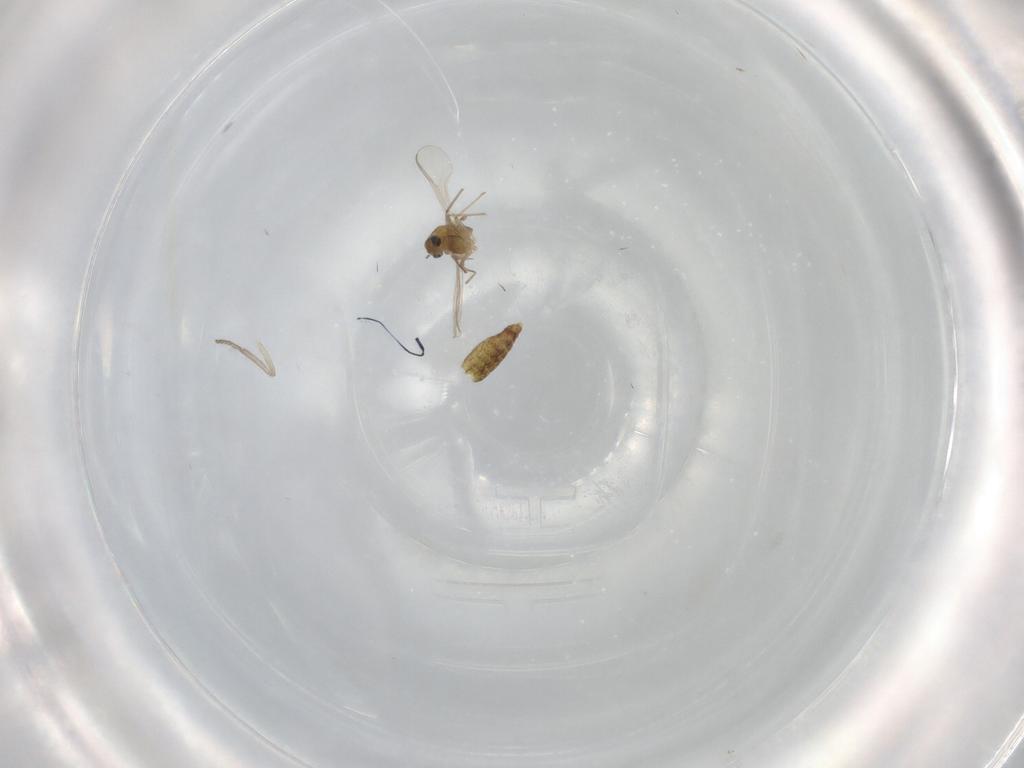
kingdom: Animalia
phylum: Arthropoda
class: Insecta
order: Diptera
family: Chironomidae
